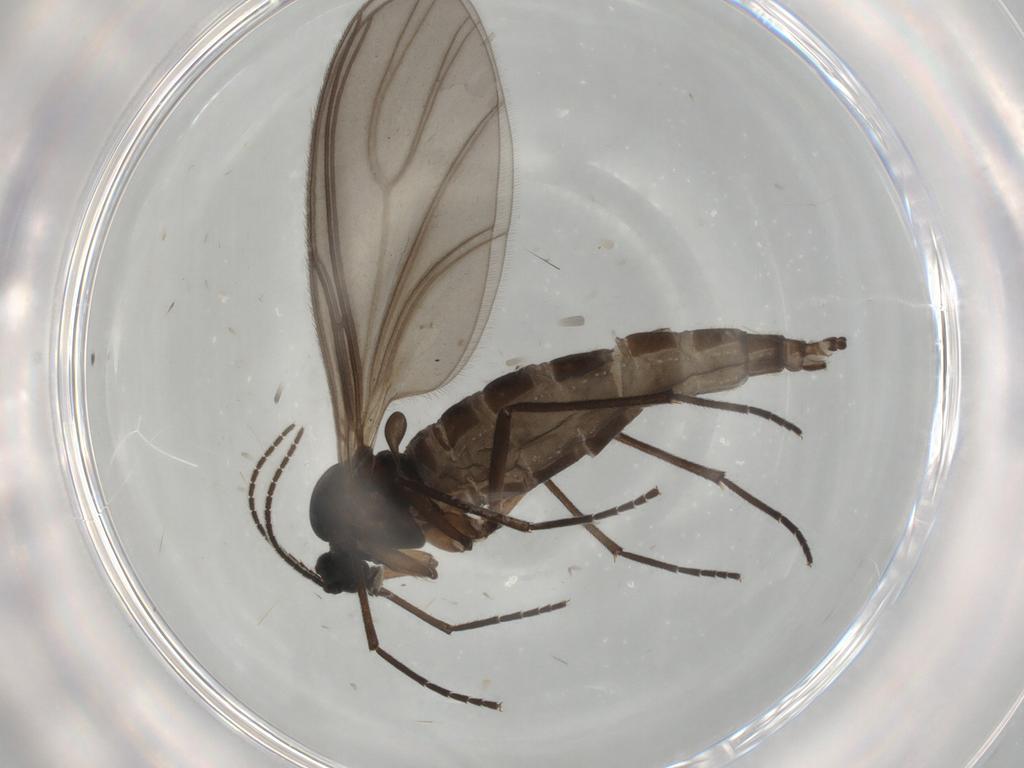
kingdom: Animalia
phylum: Arthropoda
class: Insecta
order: Diptera
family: Sciaridae
